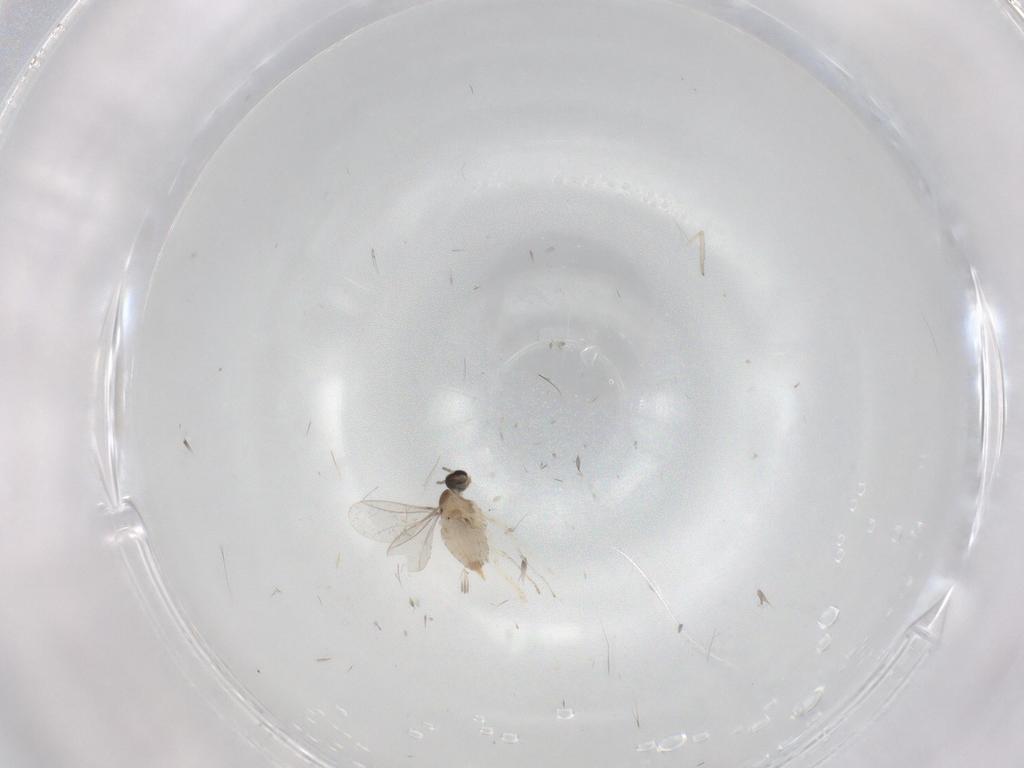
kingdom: Animalia
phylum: Arthropoda
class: Insecta
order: Diptera
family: Cecidomyiidae
